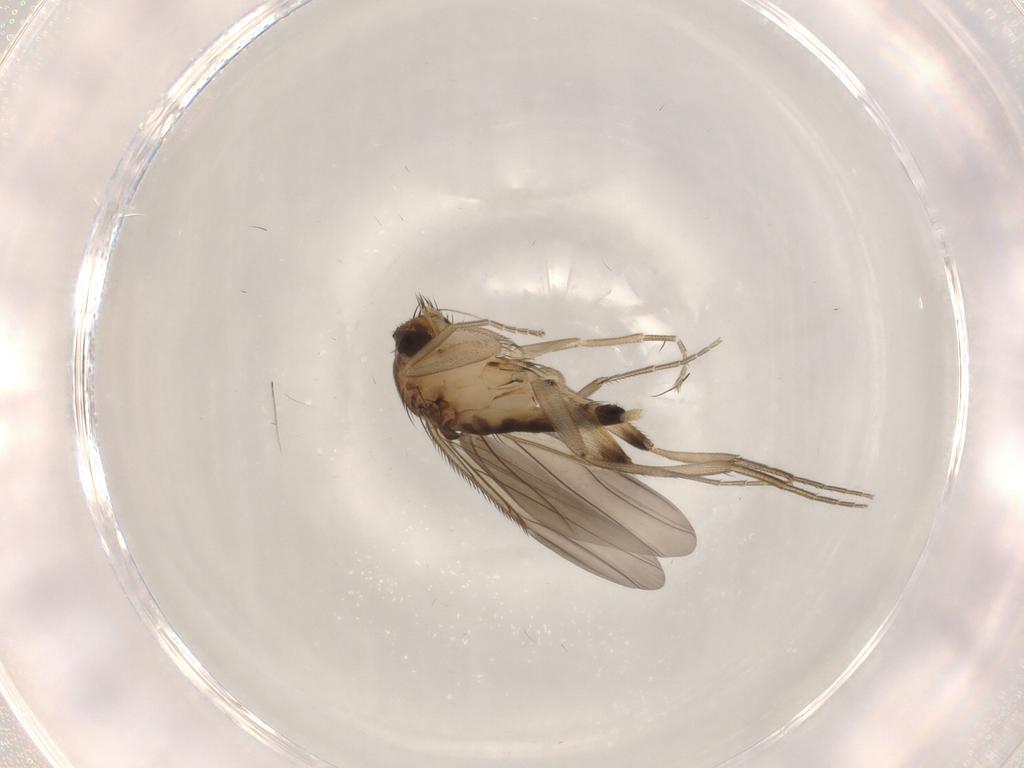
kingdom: Animalia
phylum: Arthropoda
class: Insecta
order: Diptera
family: Phoridae
